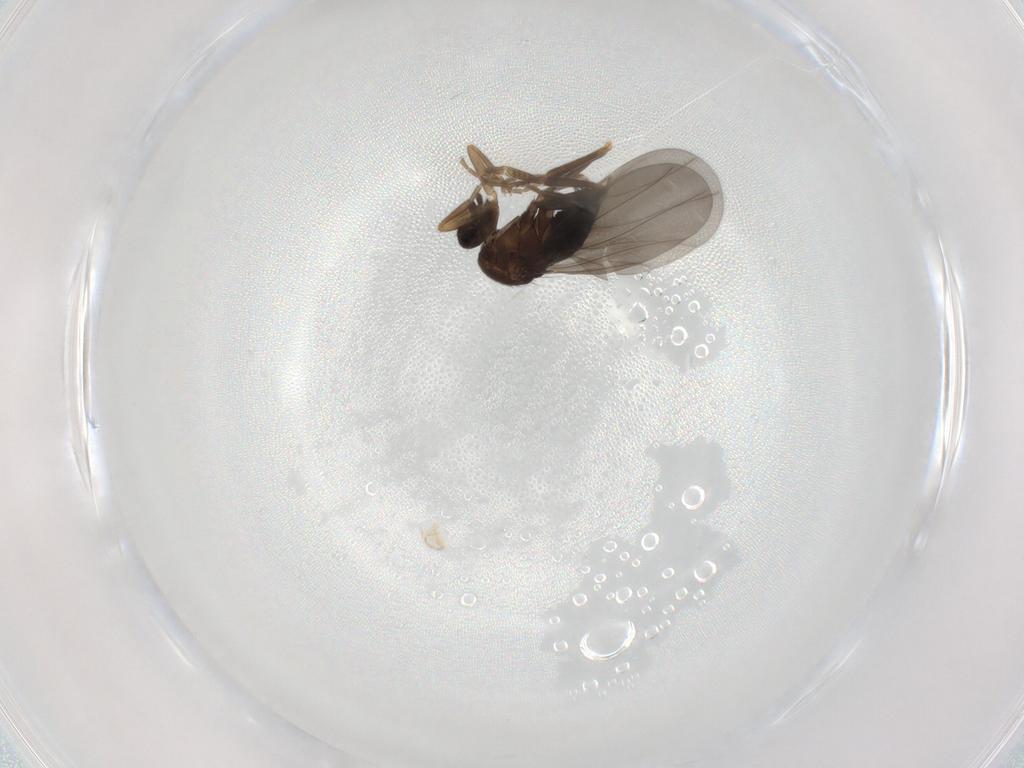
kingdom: Animalia
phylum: Arthropoda
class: Insecta
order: Diptera
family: Phoridae
